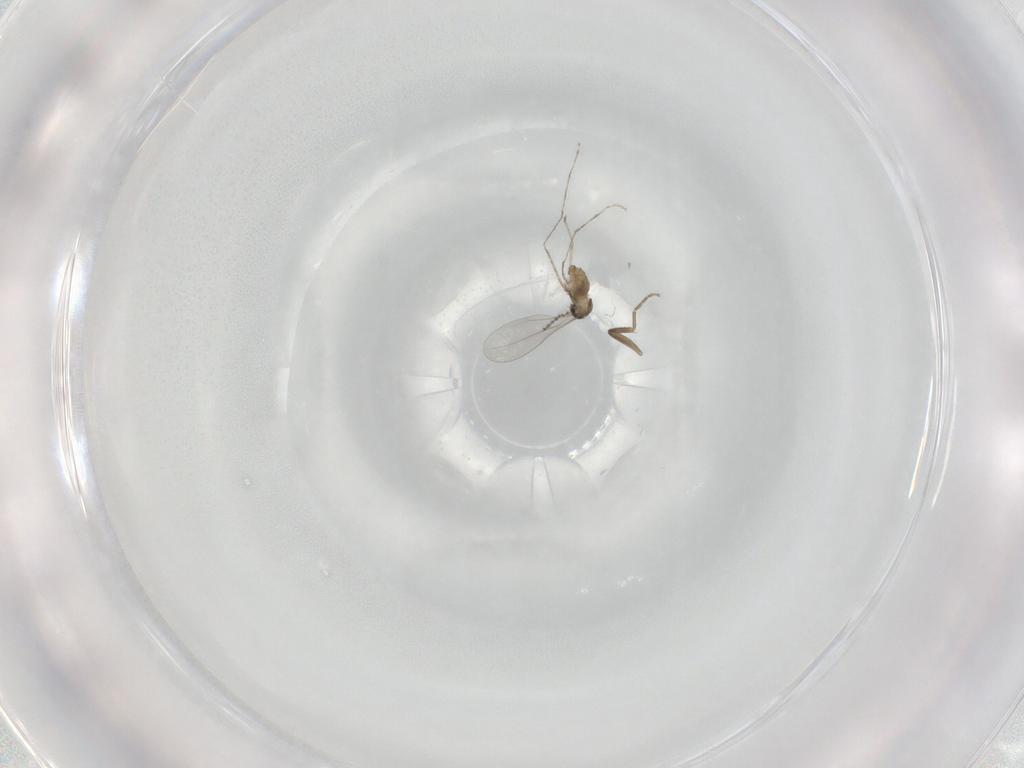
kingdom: Animalia
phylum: Arthropoda
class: Insecta
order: Diptera
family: Cecidomyiidae
